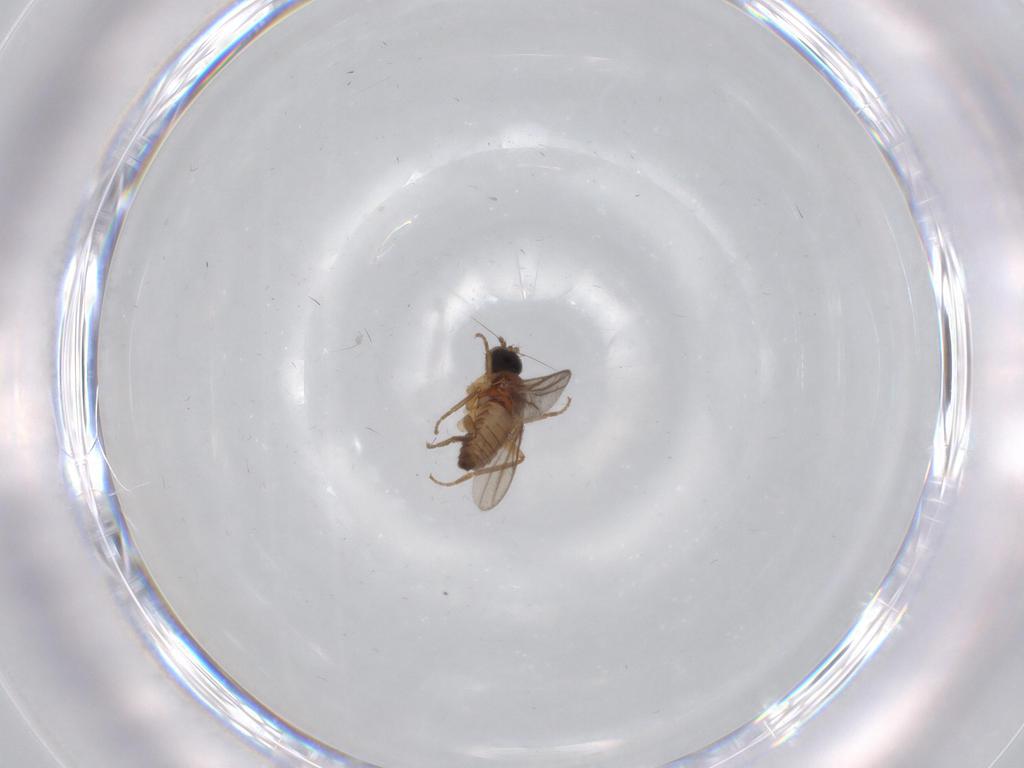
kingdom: Animalia
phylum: Arthropoda
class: Insecta
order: Diptera
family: Hybotidae
